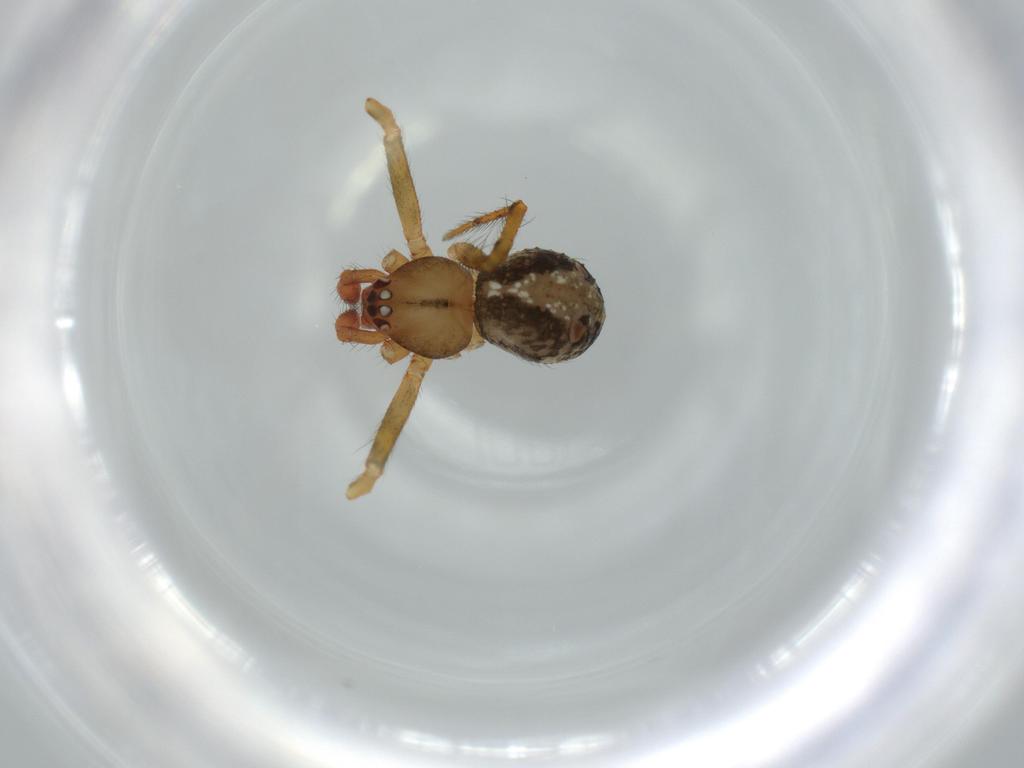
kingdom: Animalia
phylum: Arthropoda
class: Arachnida
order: Araneae
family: Theridiidae
